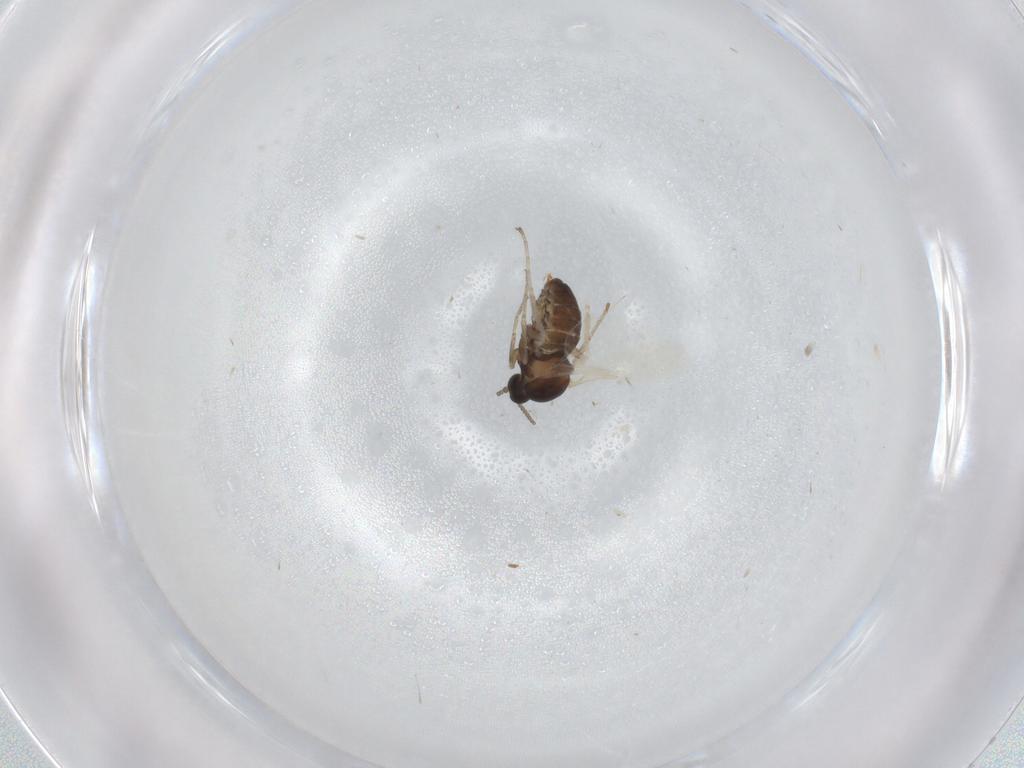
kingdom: Animalia
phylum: Arthropoda
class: Insecta
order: Diptera
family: Cecidomyiidae
